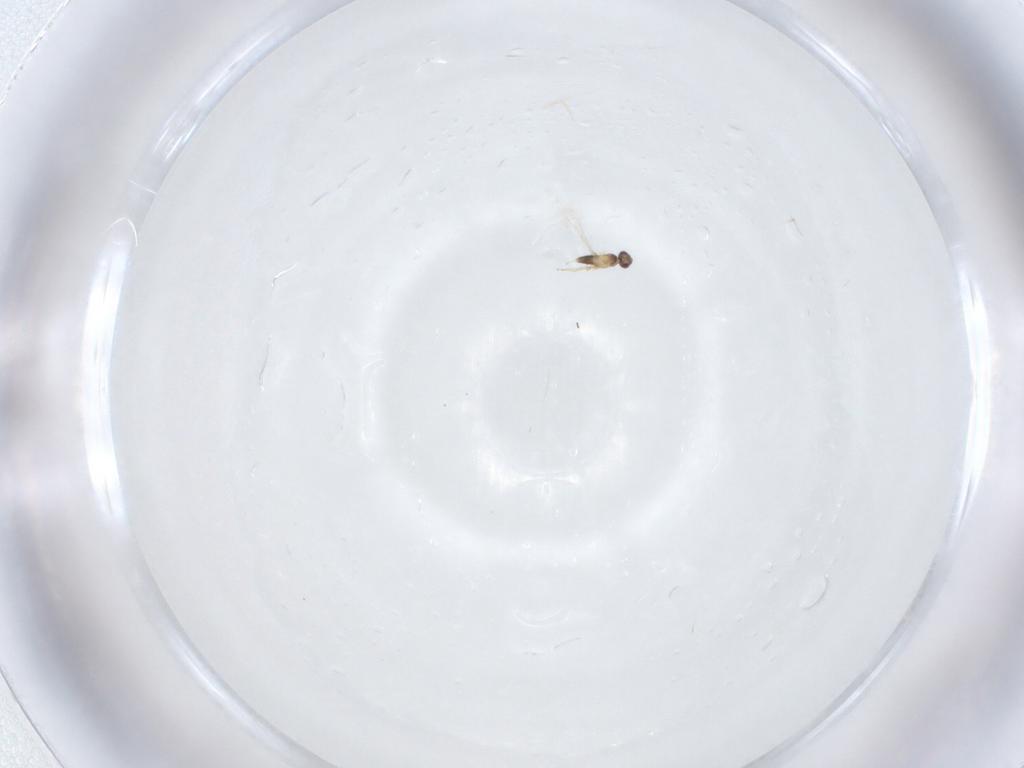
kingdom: Animalia
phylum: Arthropoda
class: Insecta
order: Hymenoptera
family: Mymaridae
